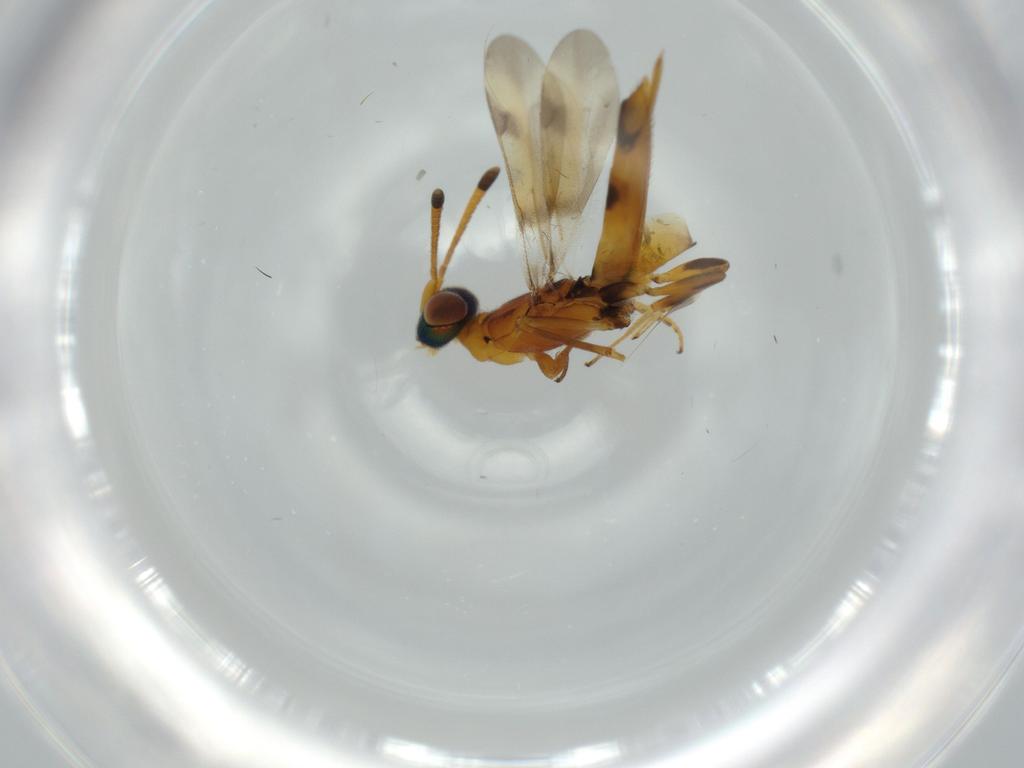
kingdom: Animalia
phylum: Arthropoda
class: Insecta
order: Hymenoptera
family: Eupelmidae
